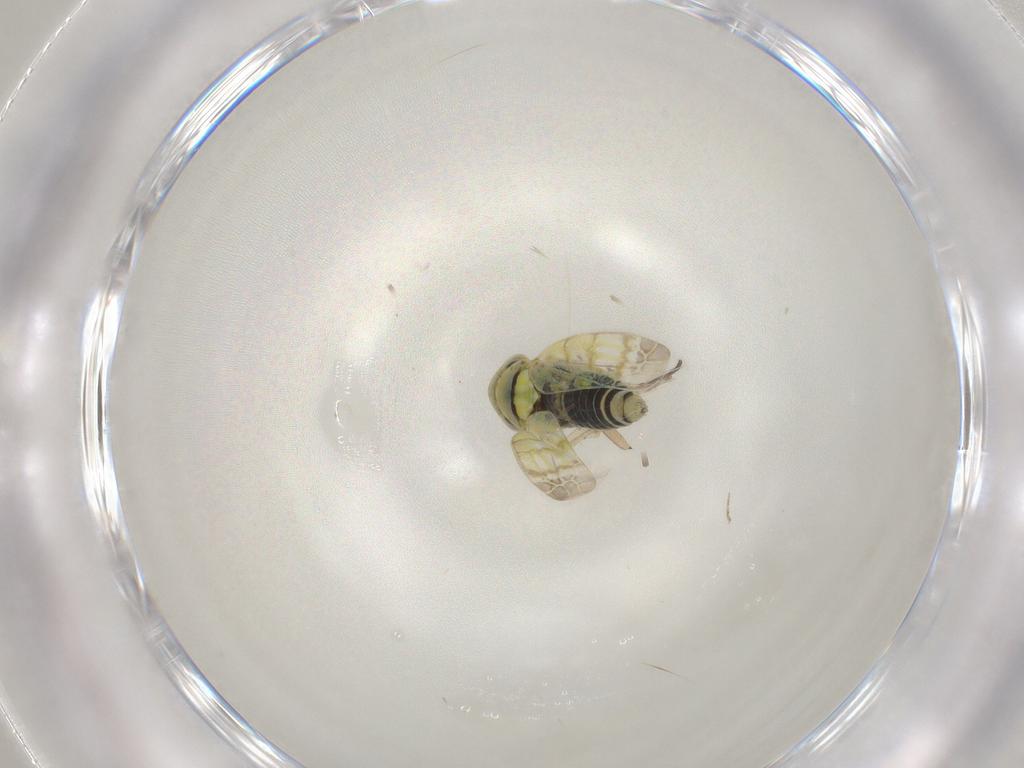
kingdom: Animalia
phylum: Arthropoda
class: Insecta
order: Hemiptera
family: Cicadellidae
